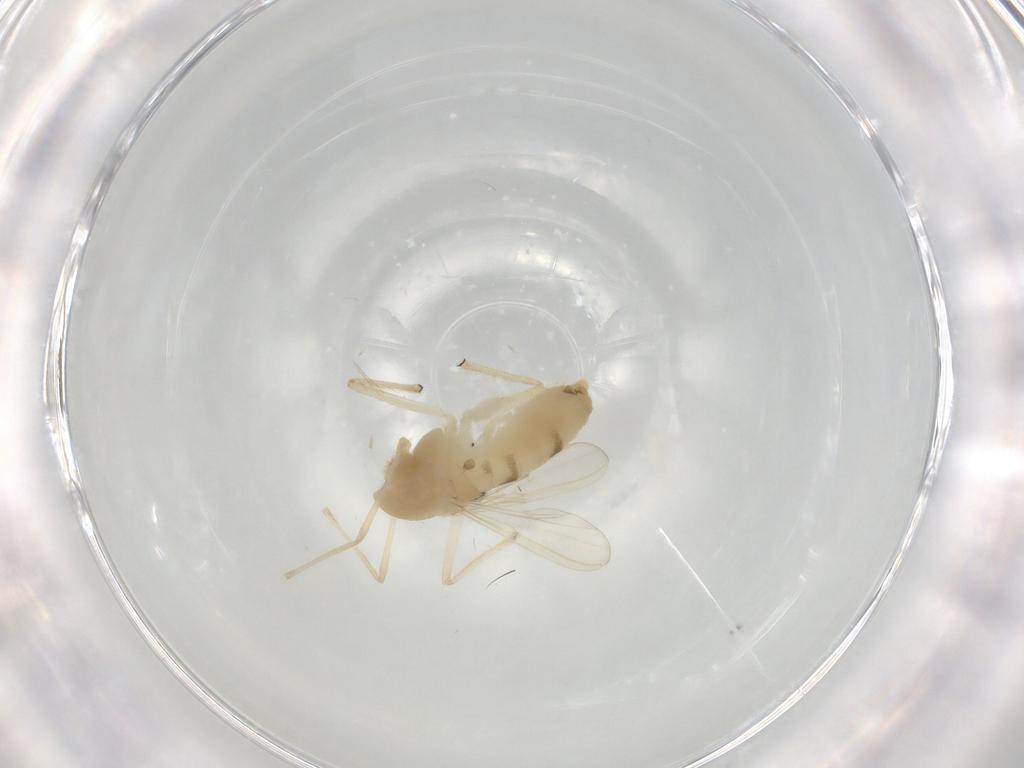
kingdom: Animalia
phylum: Arthropoda
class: Insecta
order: Diptera
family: Chironomidae
